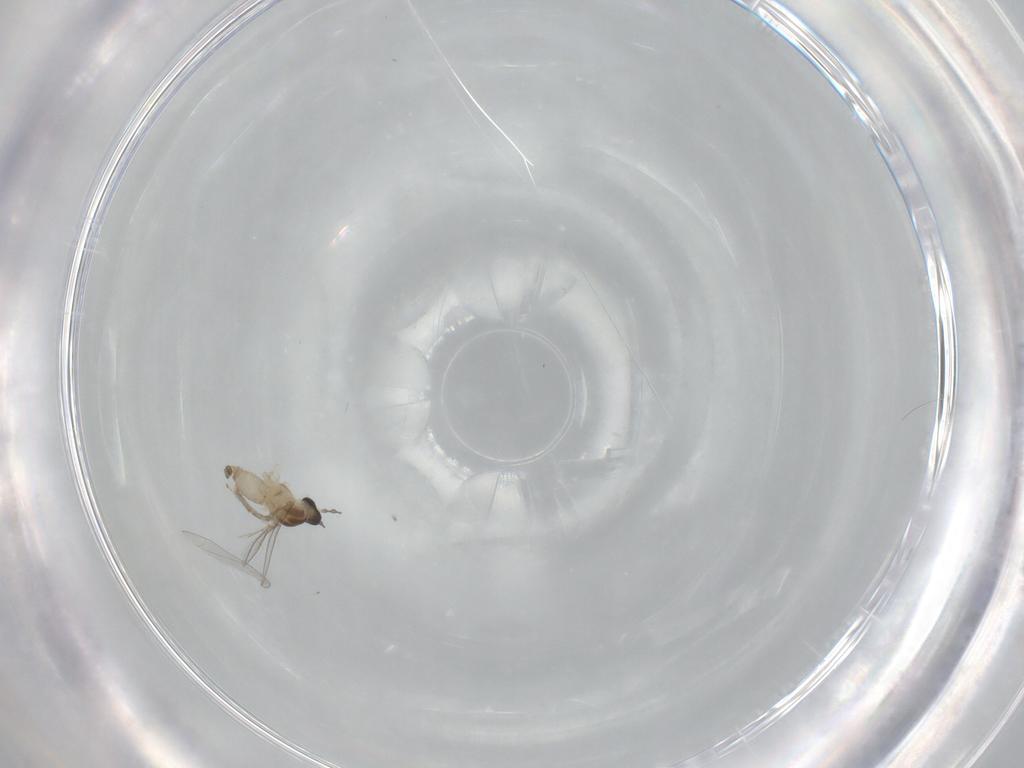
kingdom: Animalia
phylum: Arthropoda
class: Insecta
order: Diptera
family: Cecidomyiidae
